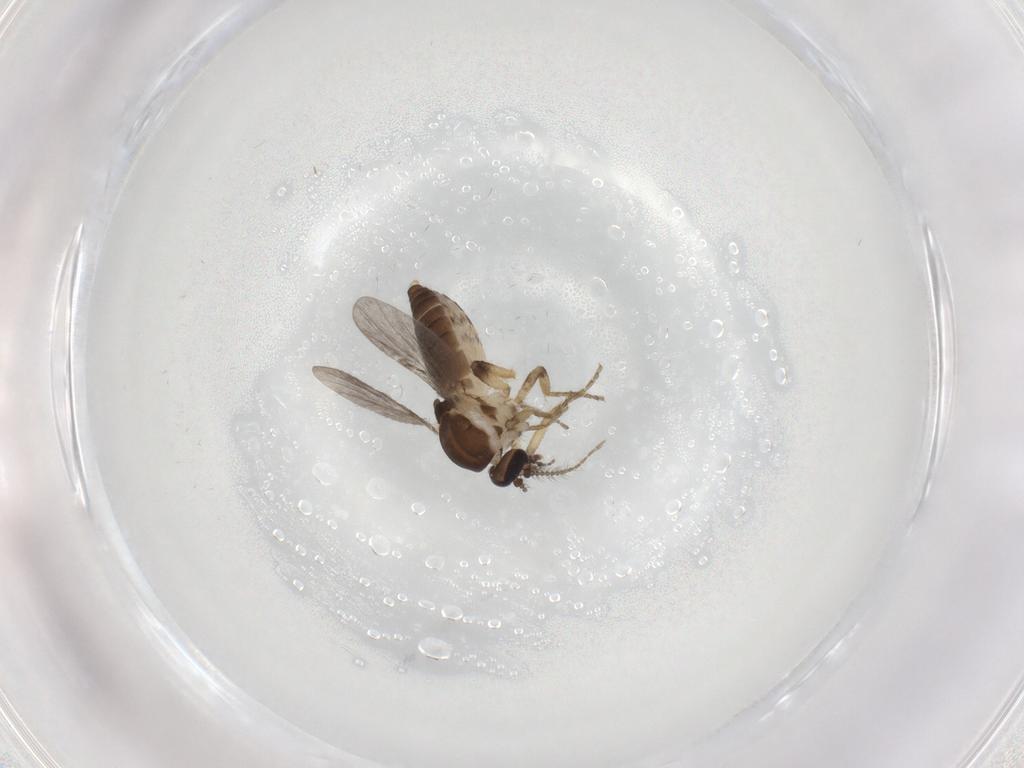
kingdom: Animalia
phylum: Arthropoda
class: Insecta
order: Diptera
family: Ceratopogonidae
